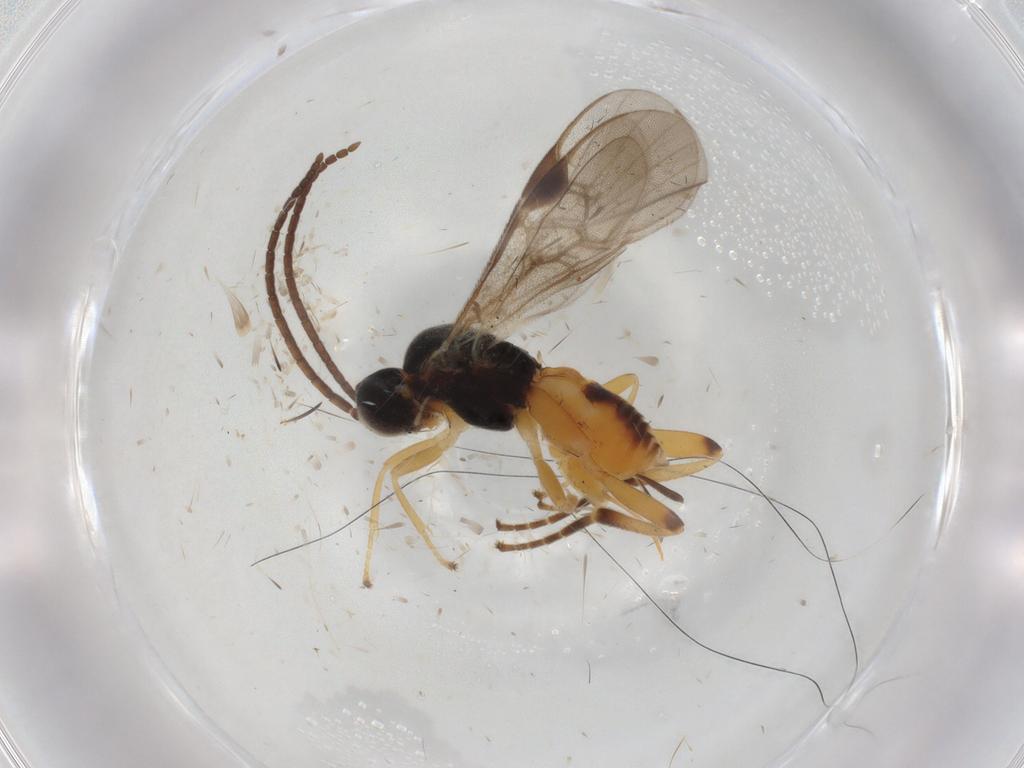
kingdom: Animalia
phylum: Arthropoda
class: Insecta
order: Hymenoptera
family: Braconidae
